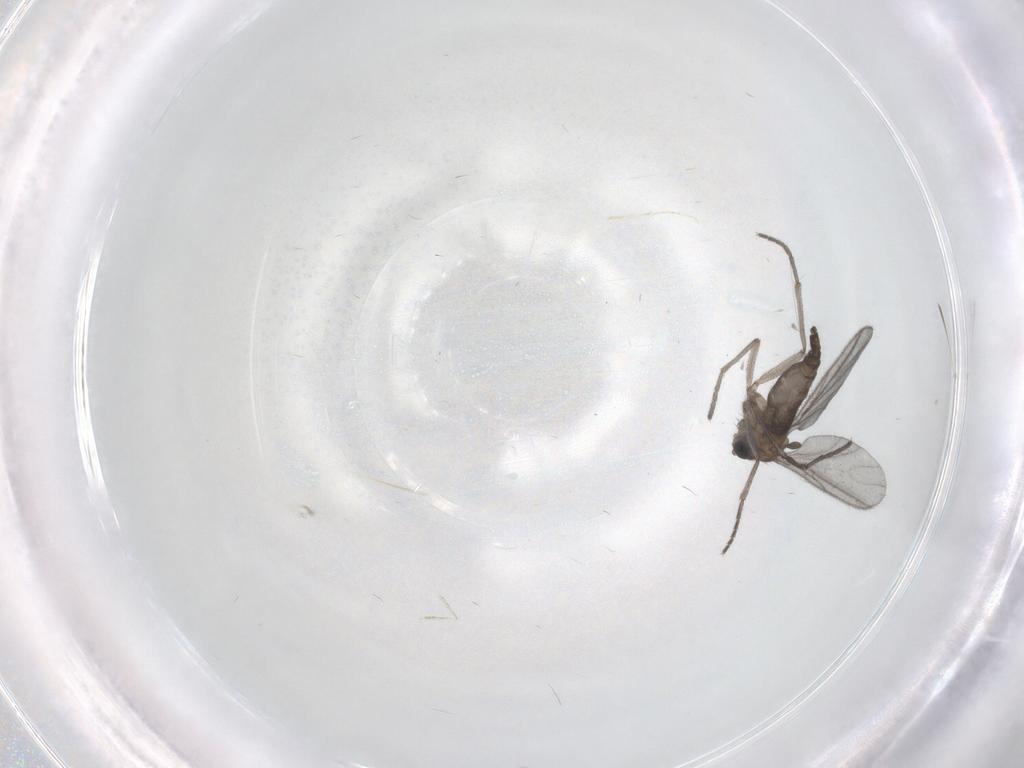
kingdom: Animalia
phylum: Arthropoda
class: Insecta
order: Diptera
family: Sciaridae
